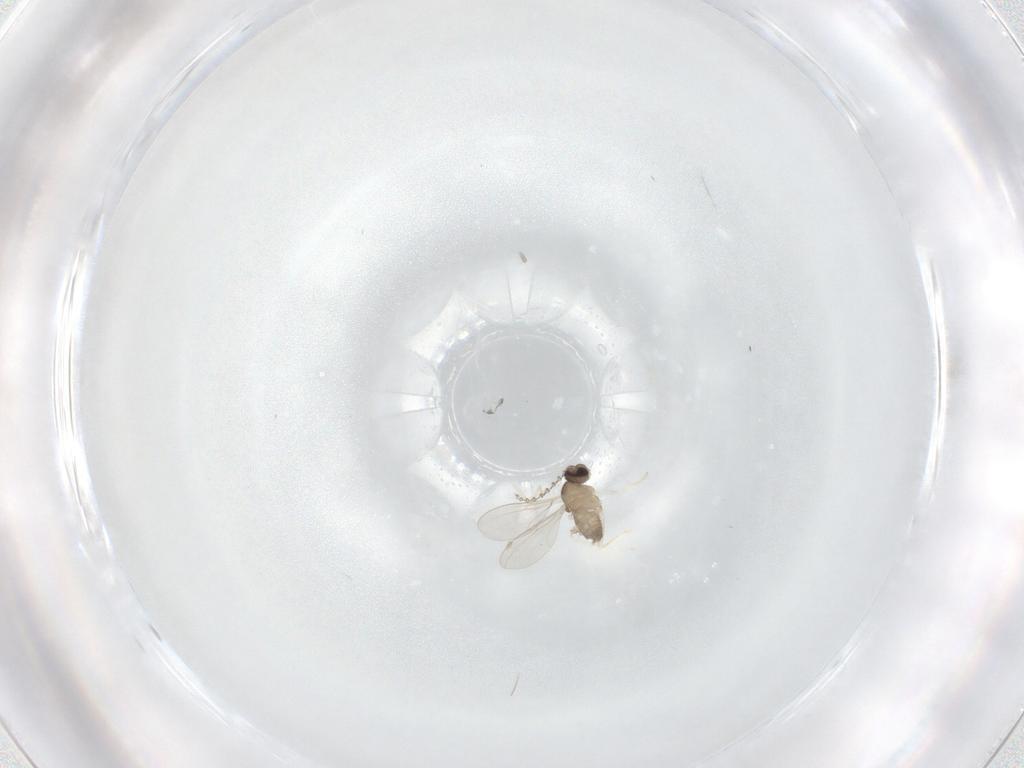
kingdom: Animalia
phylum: Arthropoda
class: Insecta
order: Diptera
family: Cecidomyiidae
